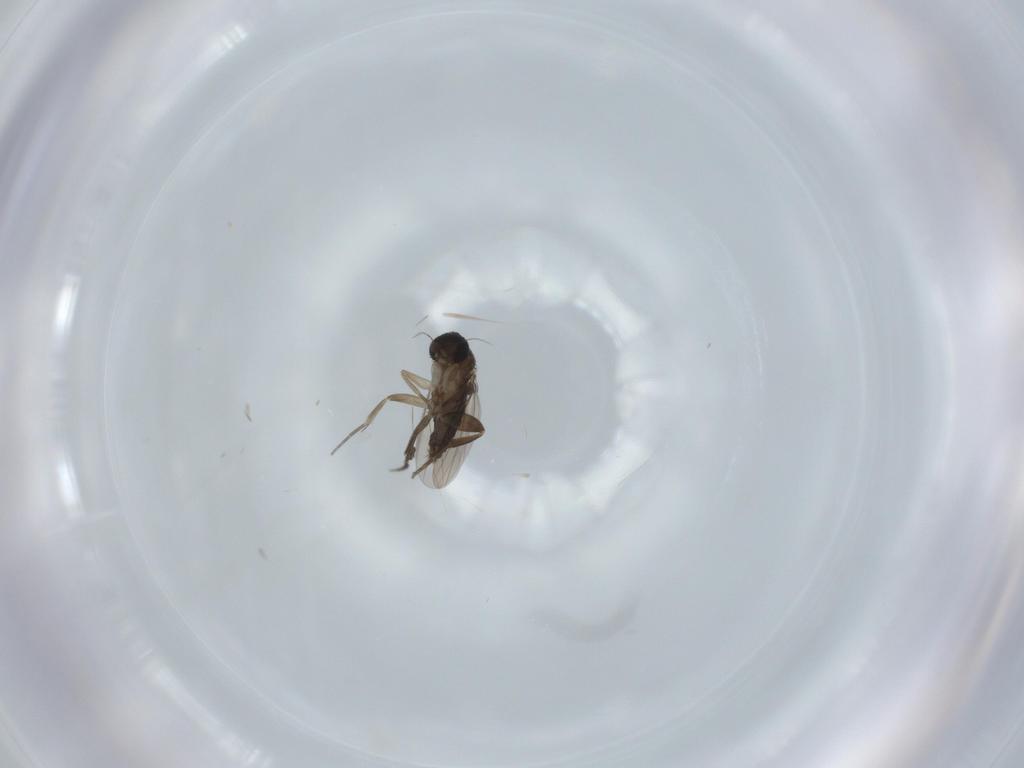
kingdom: Animalia
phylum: Arthropoda
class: Insecta
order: Diptera
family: Phoridae
